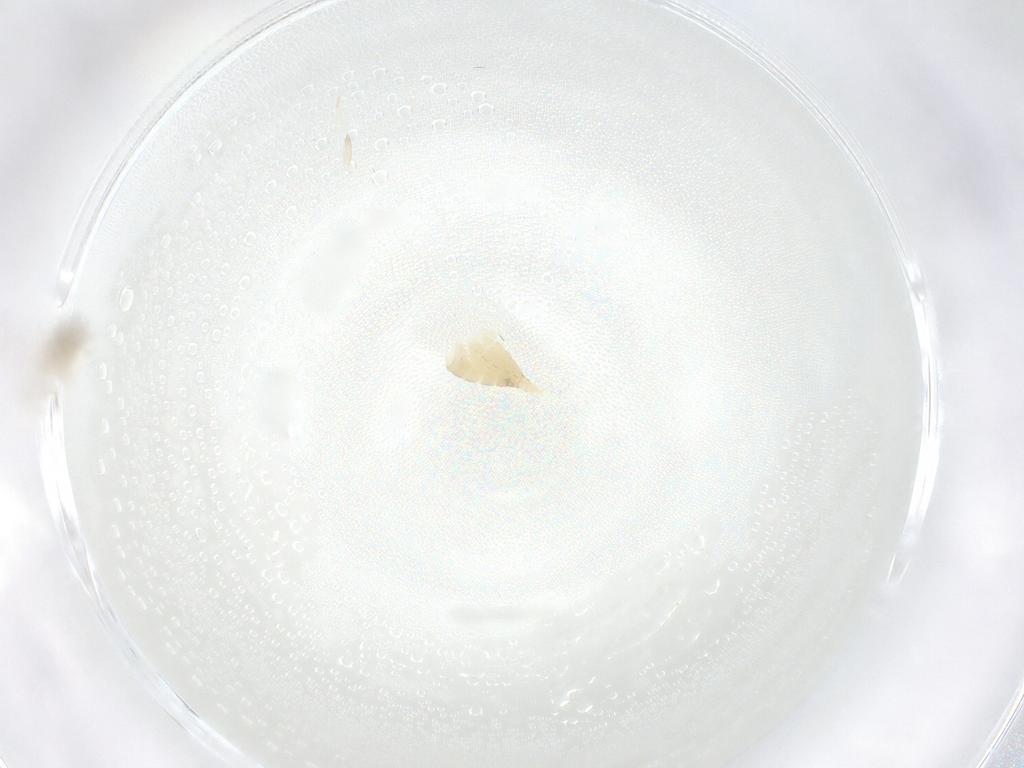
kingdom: Animalia
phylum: Arthropoda
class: Insecta
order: Diptera
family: Cecidomyiidae
